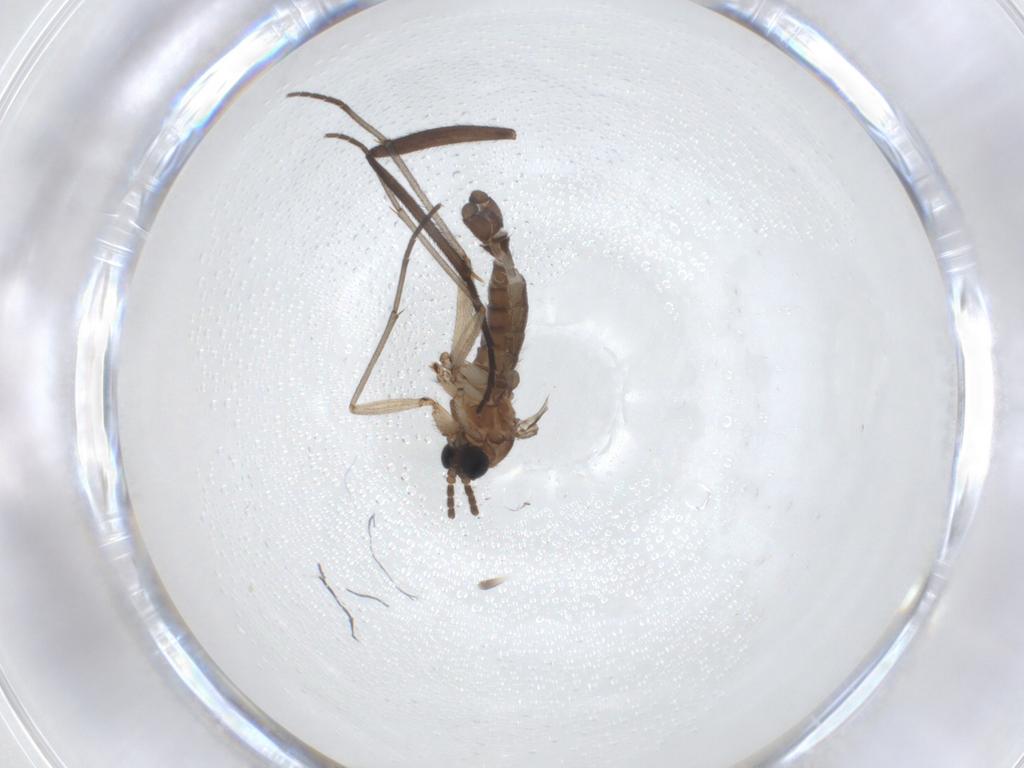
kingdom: Animalia
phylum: Arthropoda
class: Insecta
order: Diptera
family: Sciaridae
